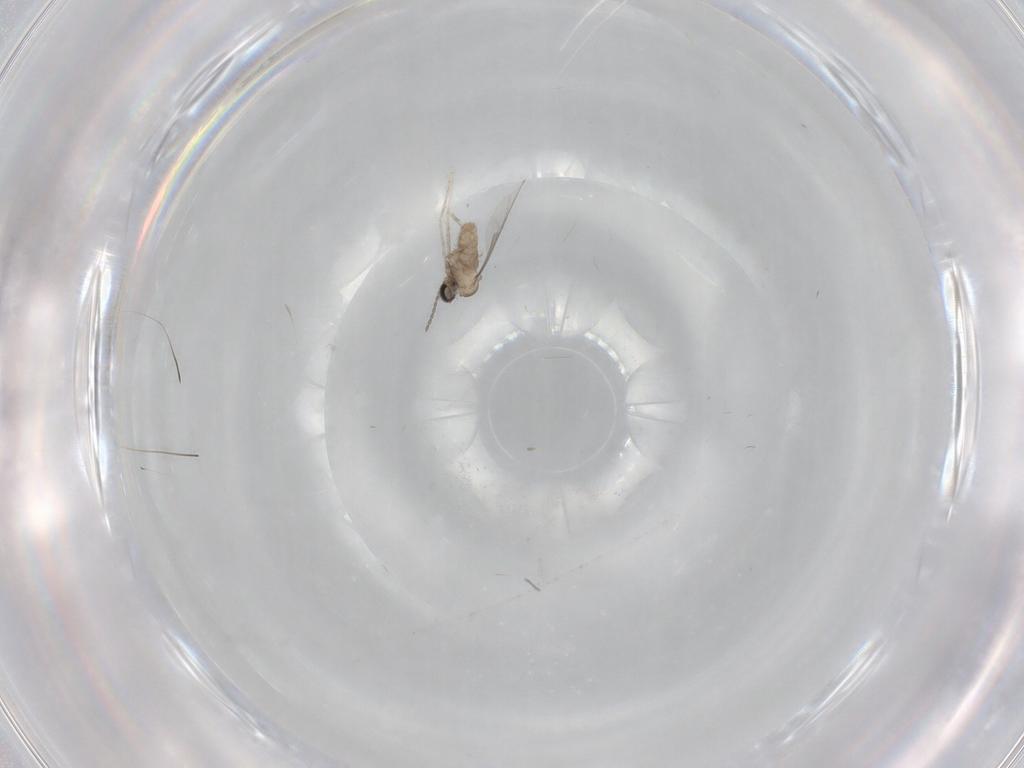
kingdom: Animalia
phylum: Arthropoda
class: Insecta
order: Diptera
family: Cecidomyiidae
